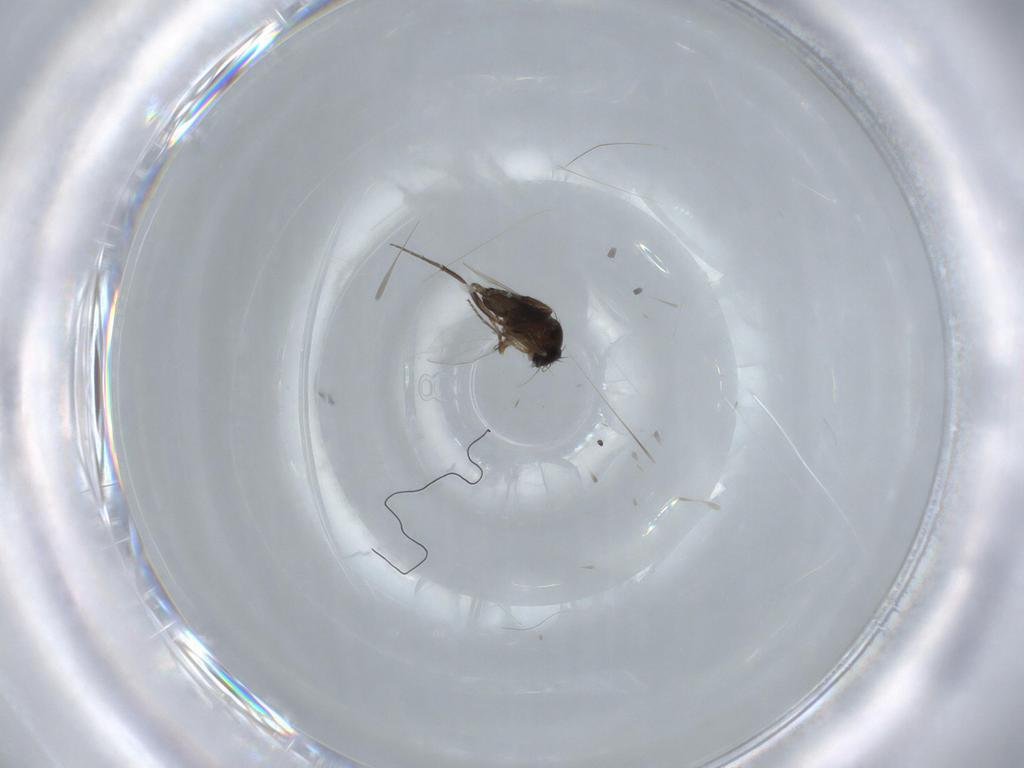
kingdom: Animalia
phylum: Arthropoda
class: Insecta
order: Diptera
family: Phoridae
